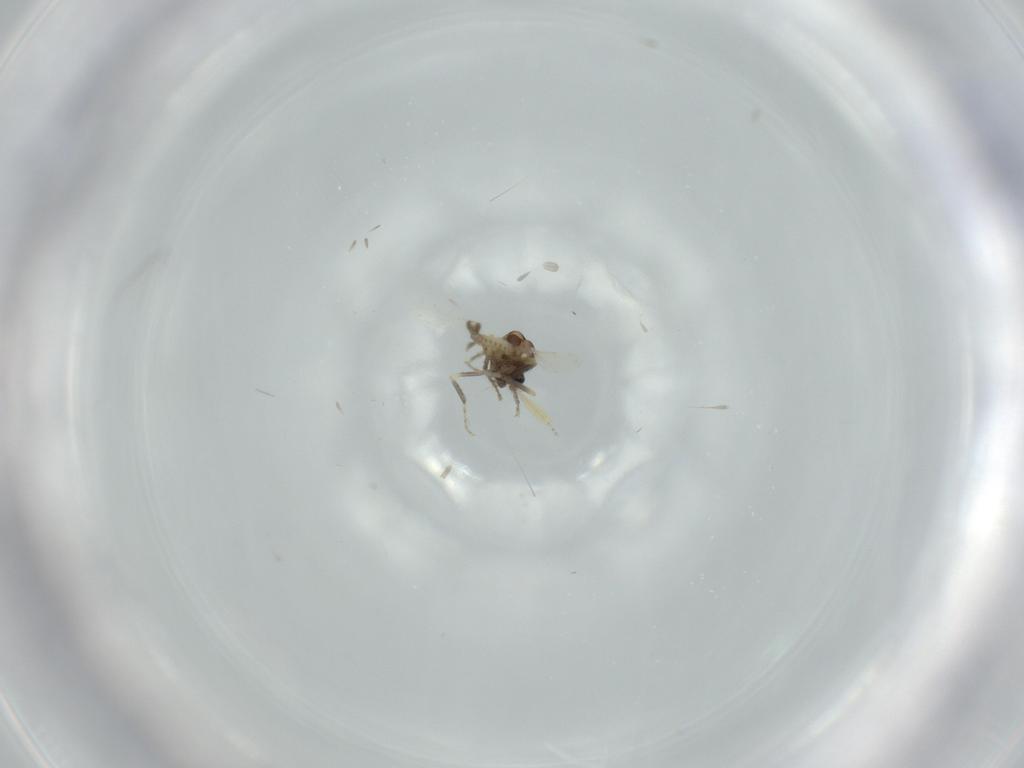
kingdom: Animalia
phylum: Arthropoda
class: Insecta
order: Diptera
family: Ceratopogonidae
